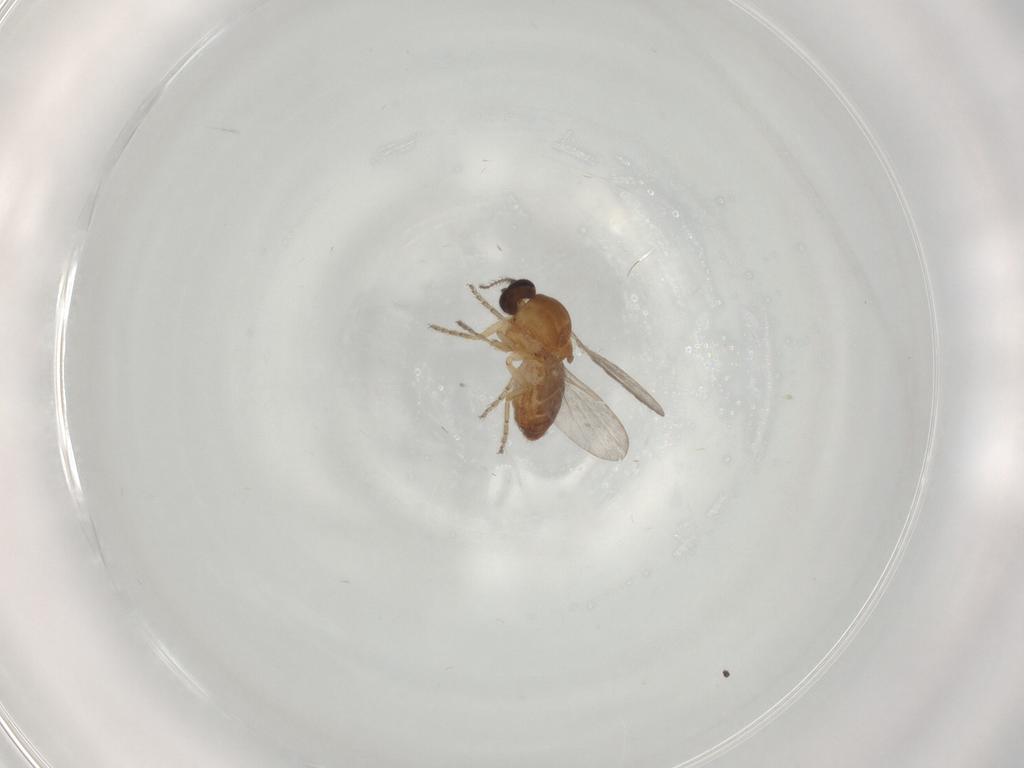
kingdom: Animalia
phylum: Arthropoda
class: Insecta
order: Diptera
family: Ceratopogonidae
